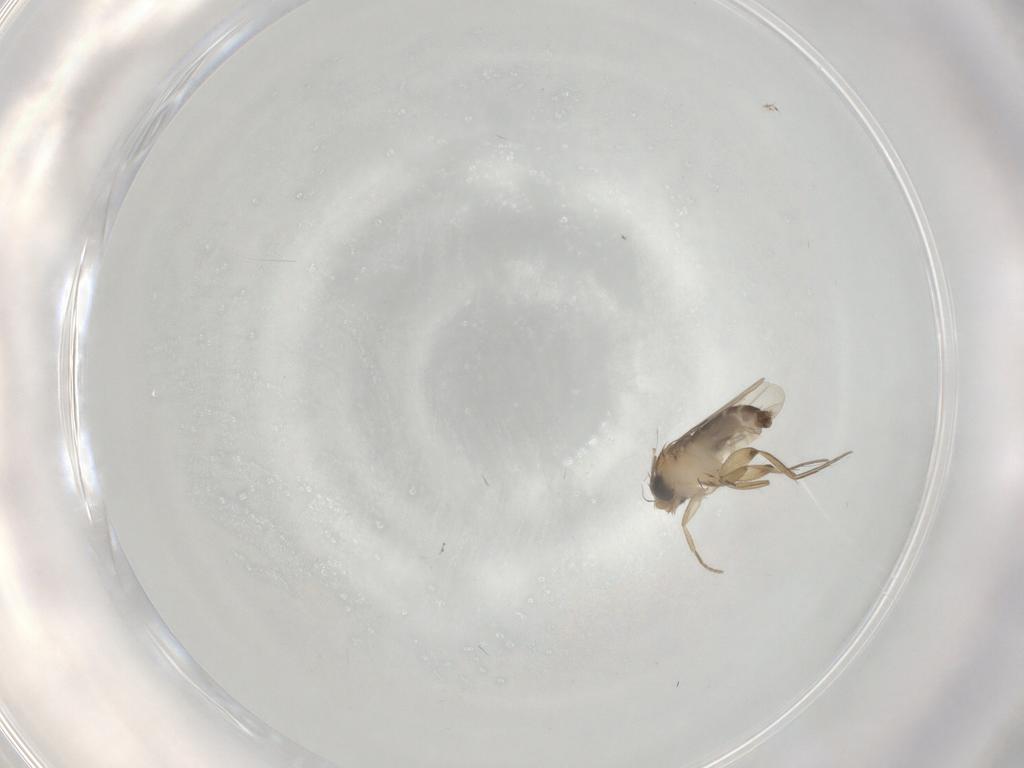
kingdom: Animalia
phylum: Arthropoda
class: Insecta
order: Diptera
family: Phoridae
